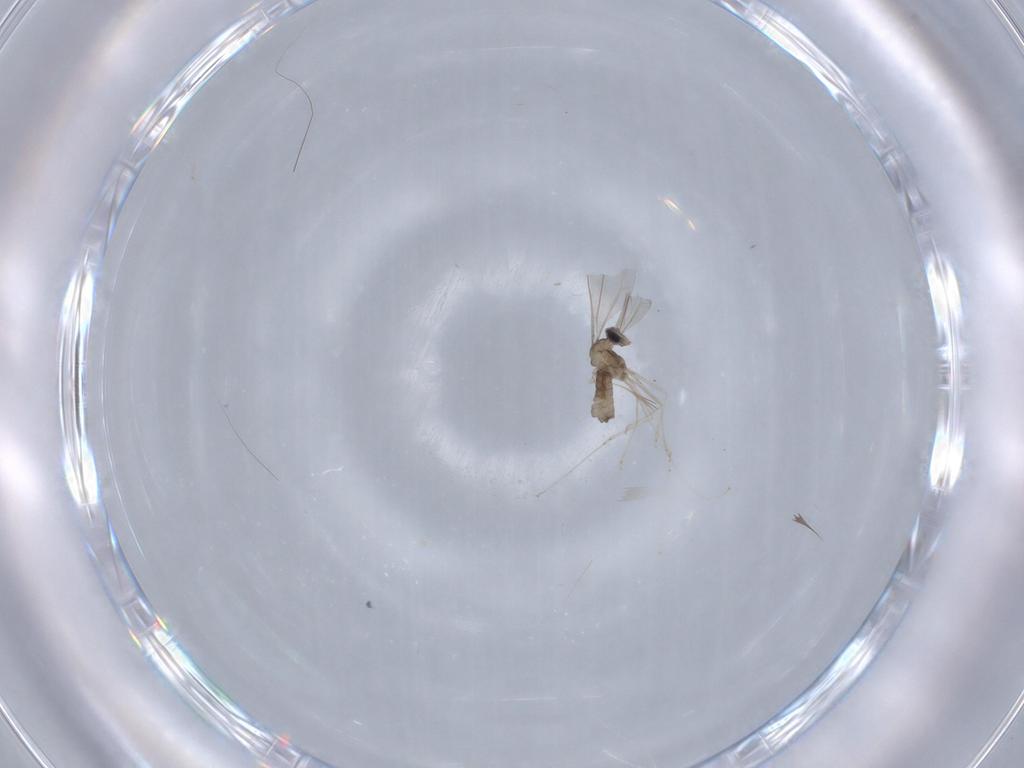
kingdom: Animalia
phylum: Arthropoda
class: Insecta
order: Diptera
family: Cecidomyiidae
